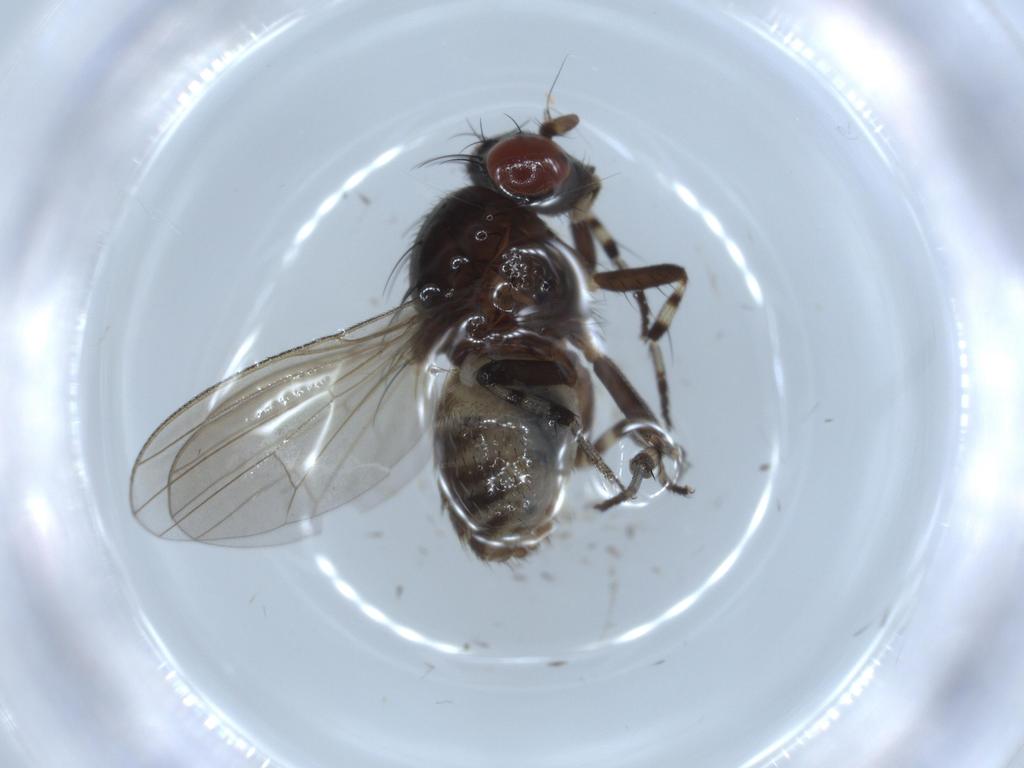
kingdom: Animalia
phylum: Arthropoda
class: Insecta
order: Diptera
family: Lauxaniidae
